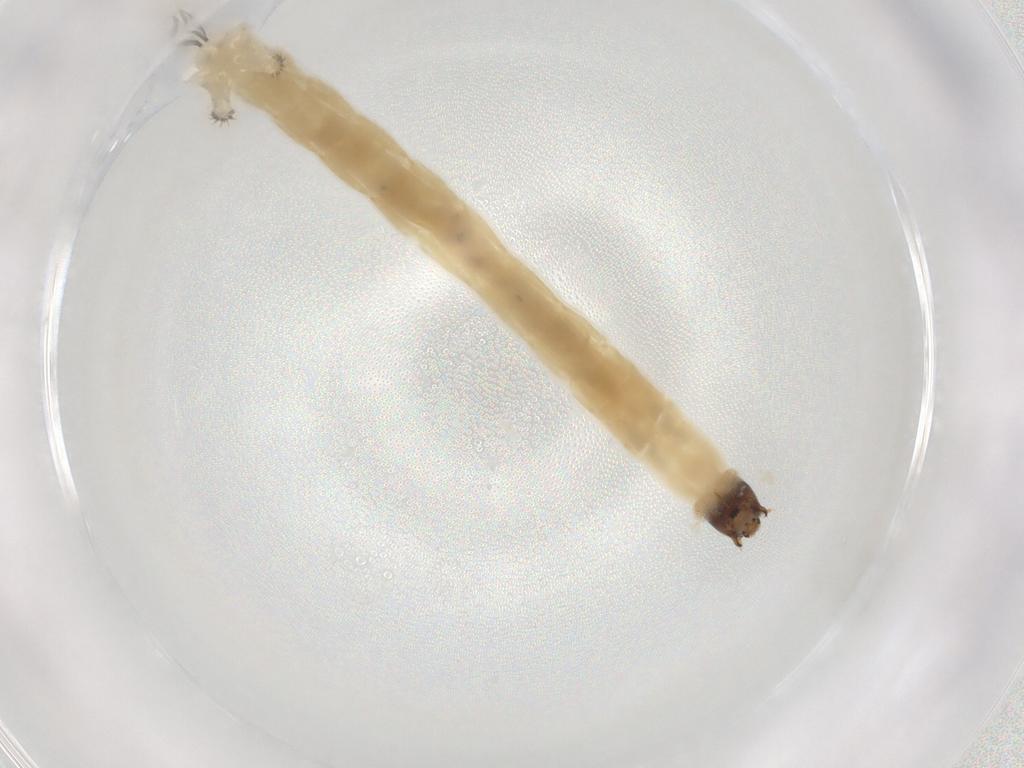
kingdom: Animalia
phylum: Arthropoda
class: Insecta
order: Diptera
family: Chironomidae
